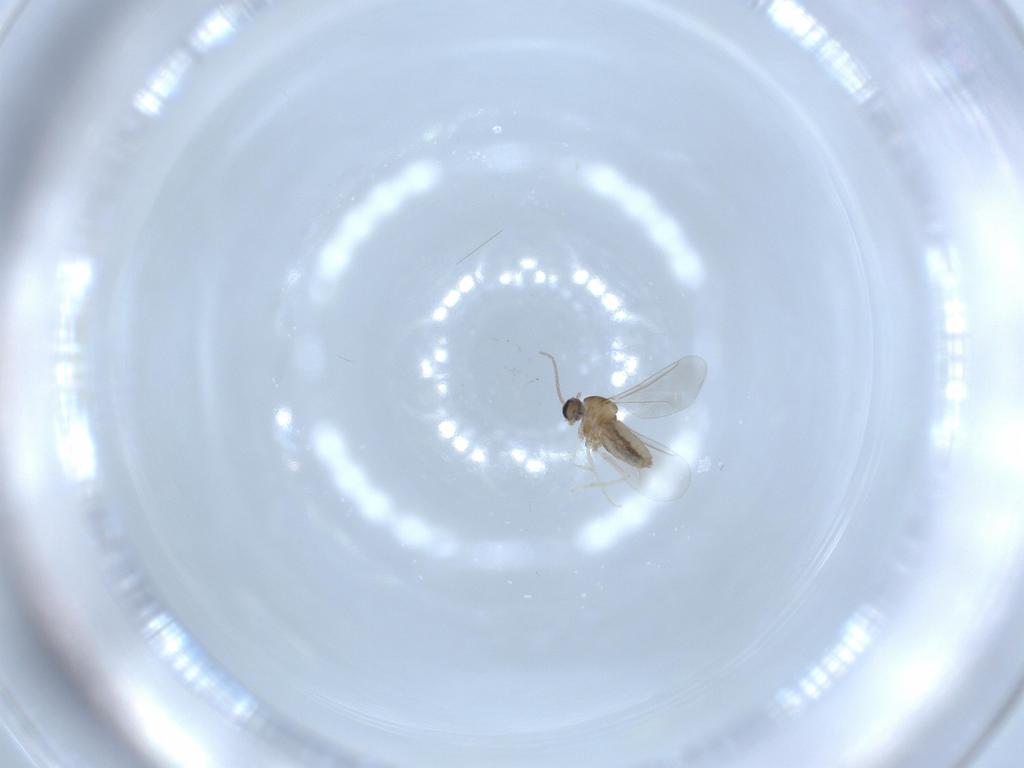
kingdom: Animalia
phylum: Arthropoda
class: Insecta
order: Diptera
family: Cecidomyiidae
